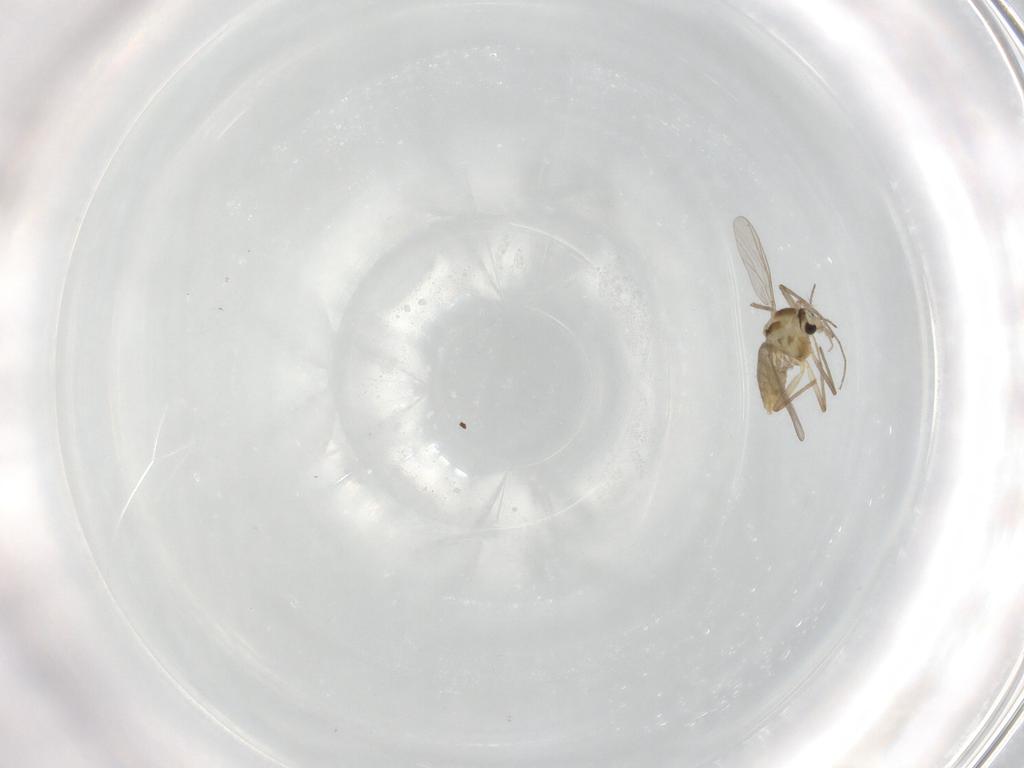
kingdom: Animalia
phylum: Arthropoda
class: Insecta
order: Diptera
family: Chironomidae
